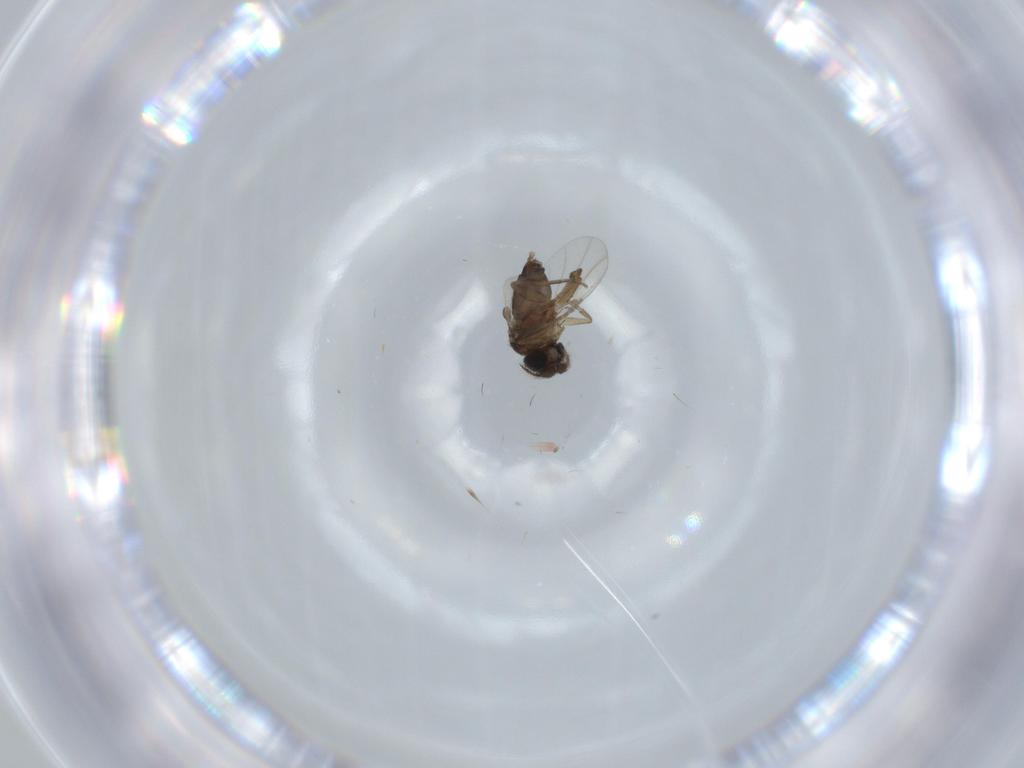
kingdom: Animalia
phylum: Arthropoda
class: Insecta
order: Diptera
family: Phoridae
